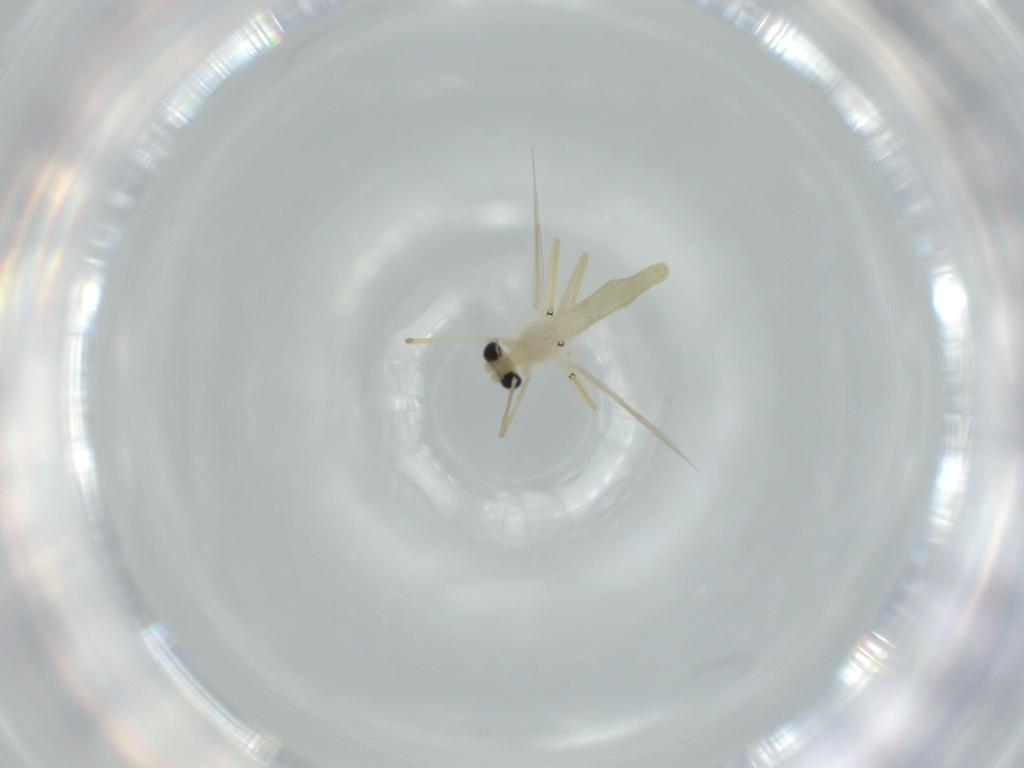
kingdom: Animalia
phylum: Arthropoda
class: Insecta
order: Diptera
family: Chironomidae
